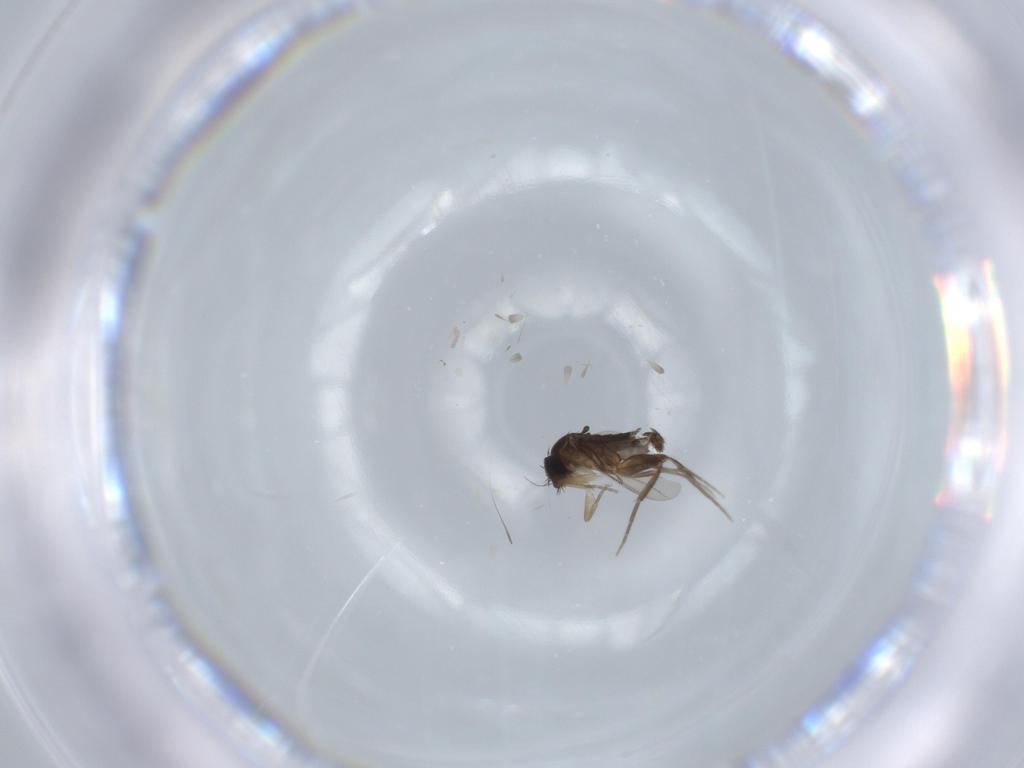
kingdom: Animalia
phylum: Arthropoda
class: Insecta
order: Diptera
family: Phoridae
